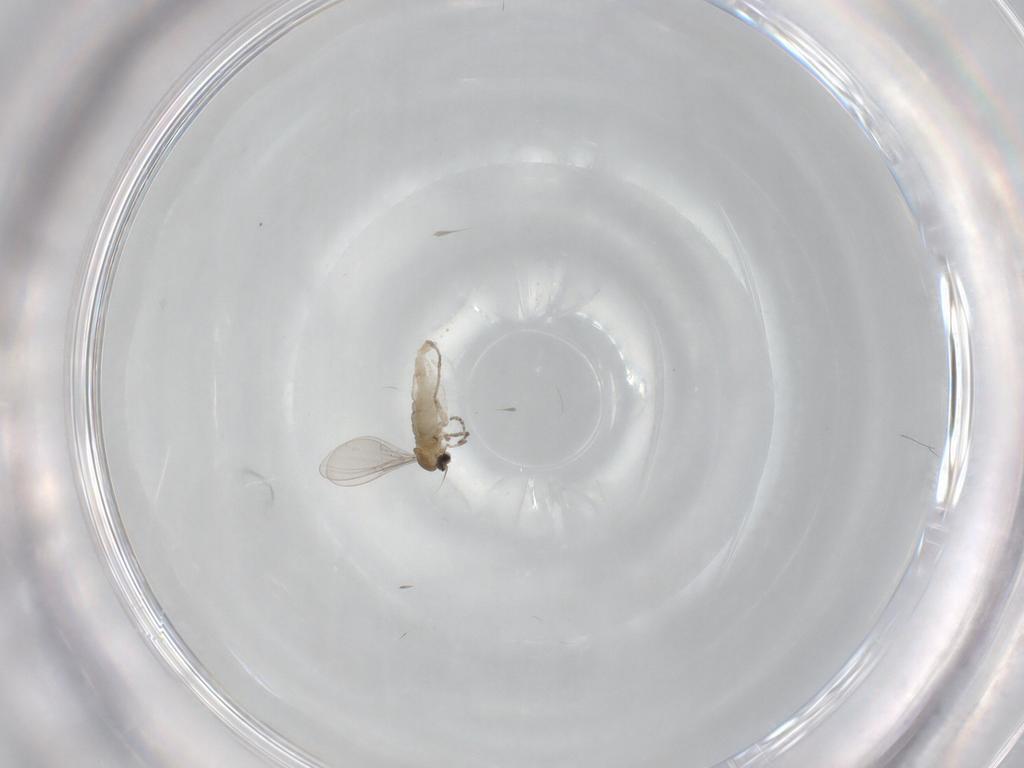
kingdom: Animalia
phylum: Arthropoda
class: Insecta
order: Diptera
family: Cecidomyiidae
